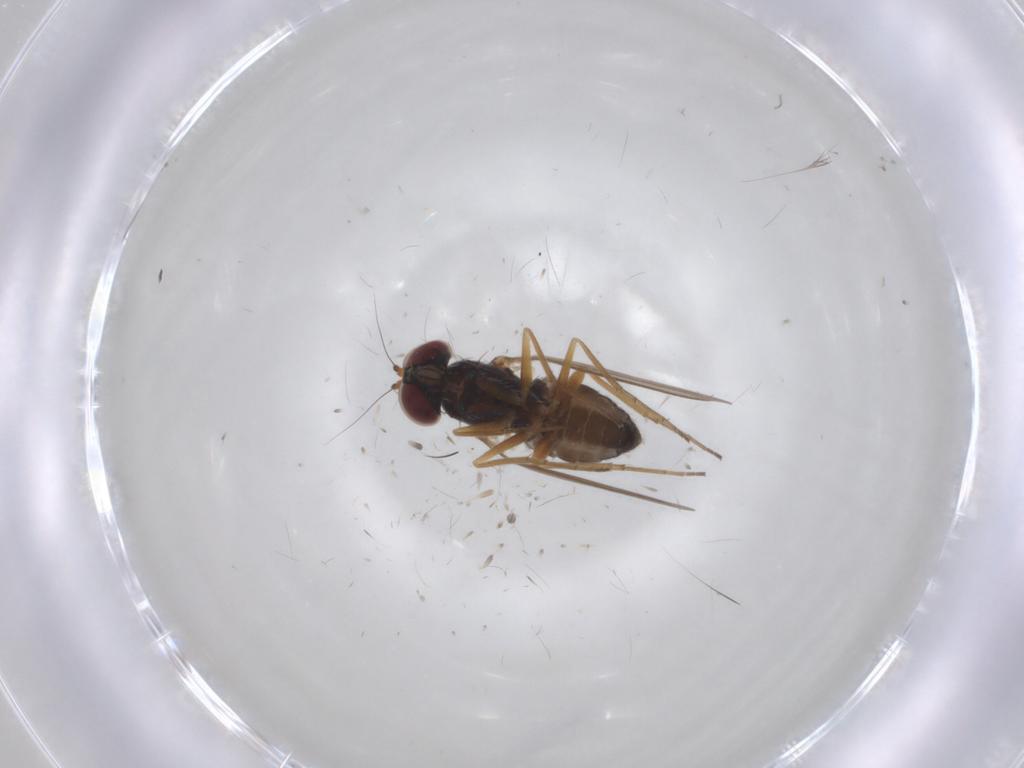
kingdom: Animalia
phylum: Arthropoda
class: Insecta
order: Diptera
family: Dolichopodidae
